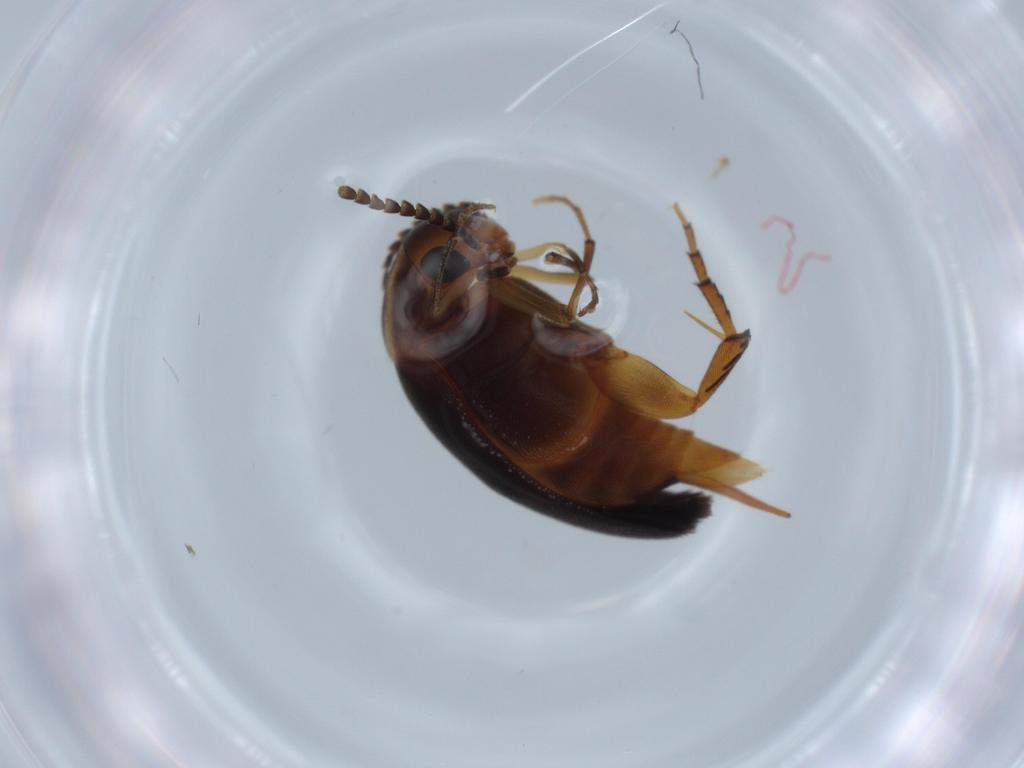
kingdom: Animalia
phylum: Arthropoda
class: Insecta
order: Coleoptera
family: Mordellidae
